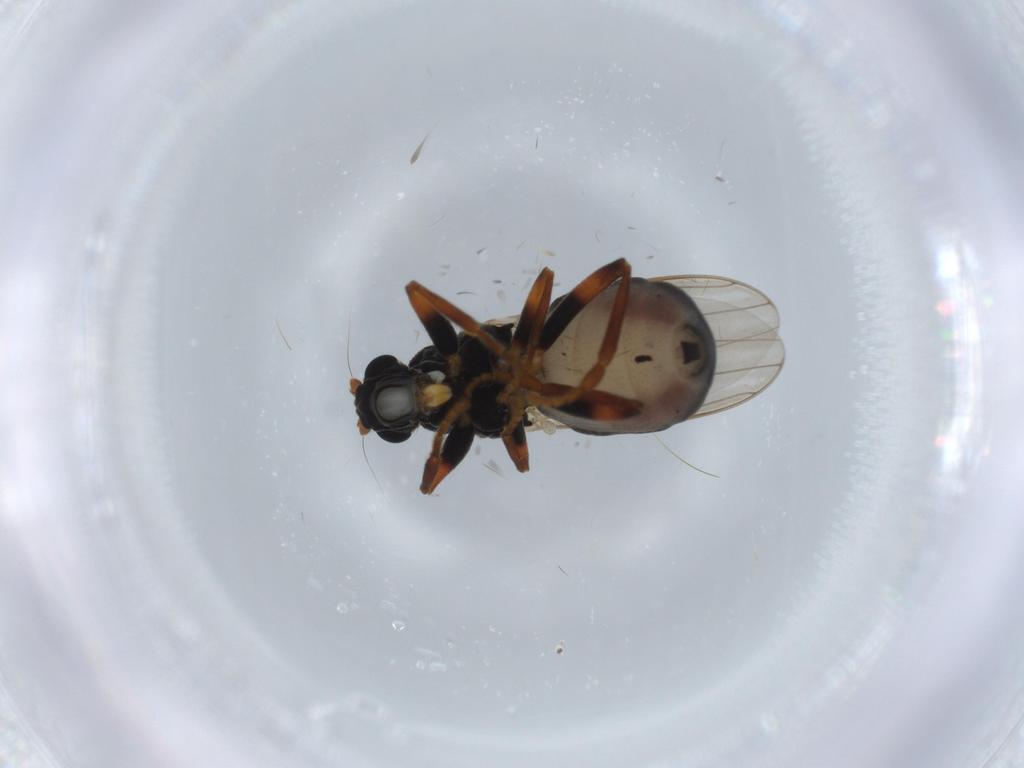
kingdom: Animalia
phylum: Arthropoda
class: Insecta
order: Diptera
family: Sphaeroceridae
